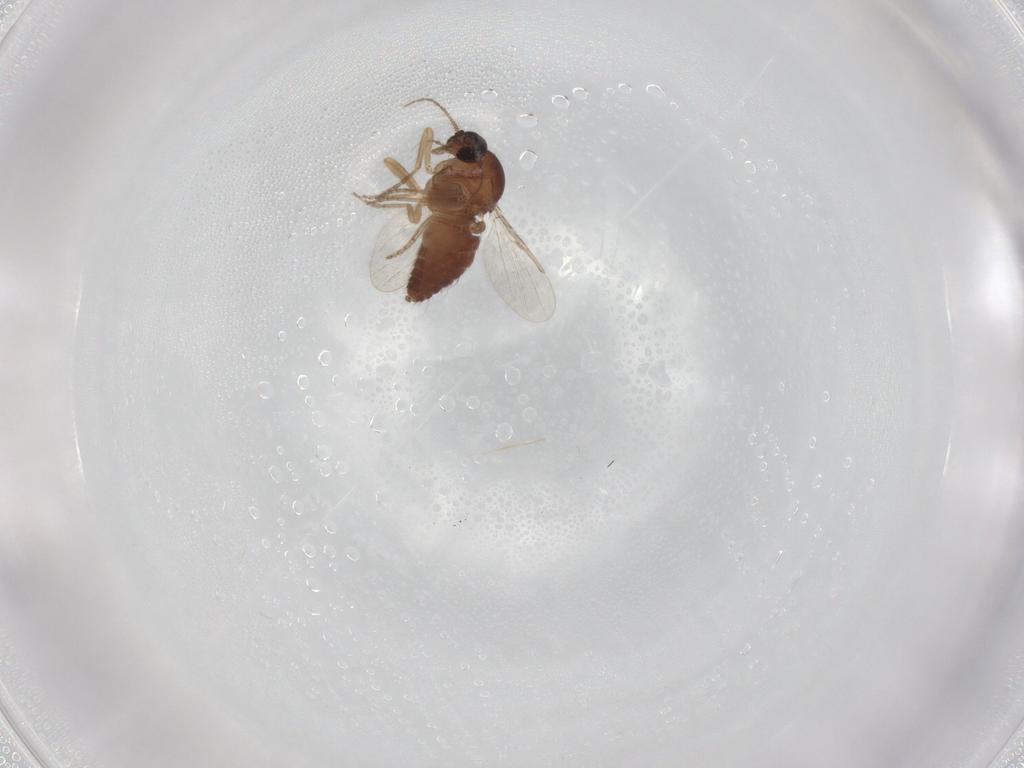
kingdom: Animalia
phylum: Arthropoda
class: Insecta
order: Diptera
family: Ceratopogonidae
